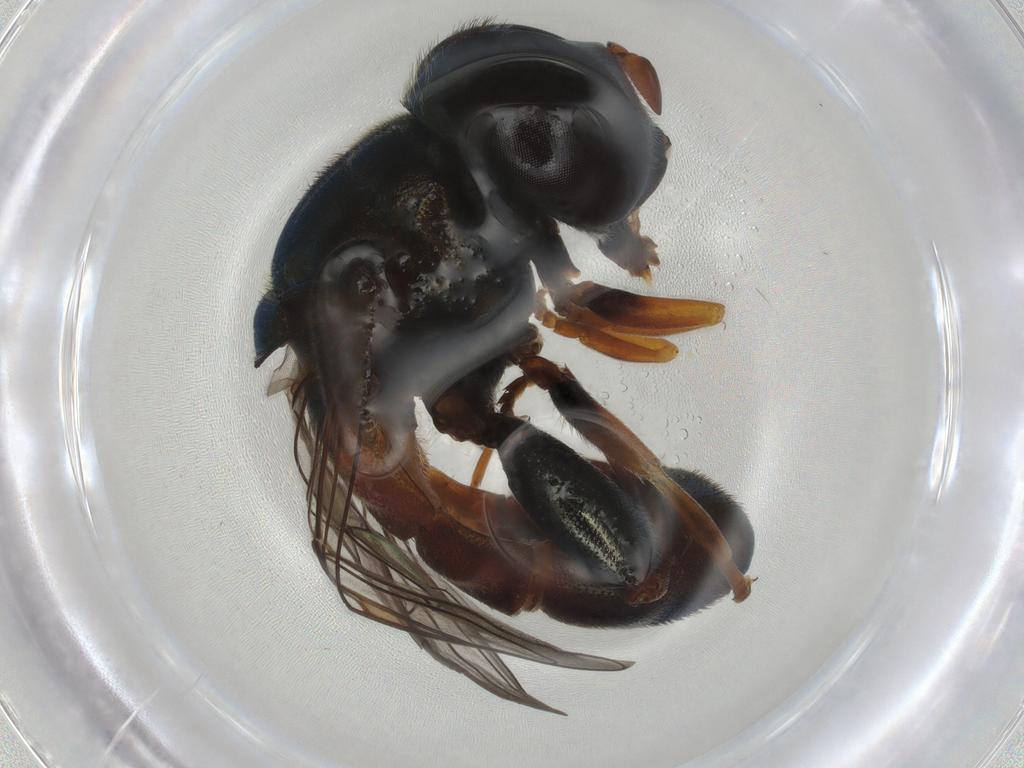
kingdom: Animalia
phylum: Arthropoda
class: Insecta
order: Diptera
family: Syrphidae
